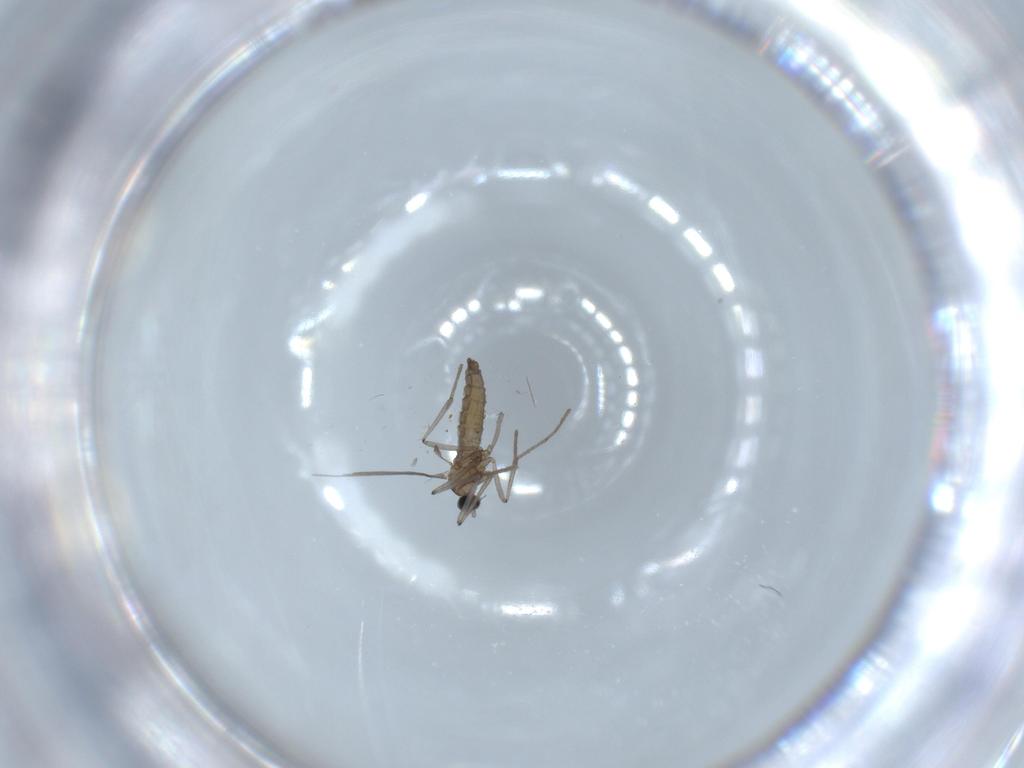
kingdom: Animalia
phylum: Arthropoda
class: Insecta
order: Diptera
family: Cecidomyiidae
